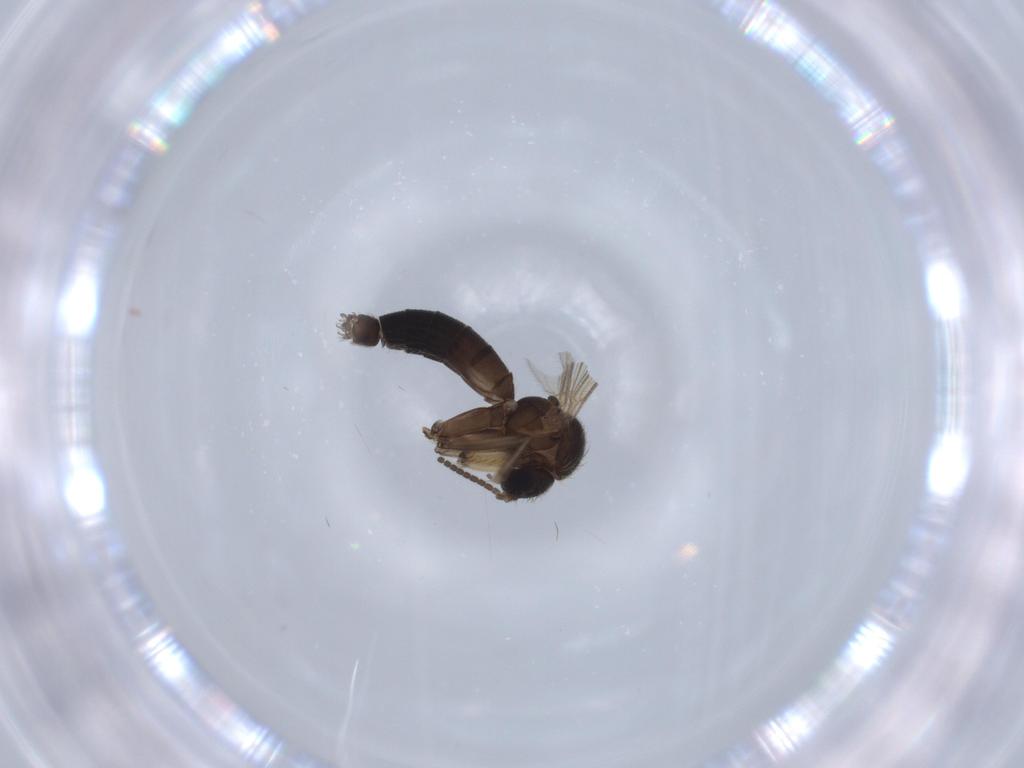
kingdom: Animalia
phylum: Arthropoda
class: Insecta
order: Diptera
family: Mycetophilidae
